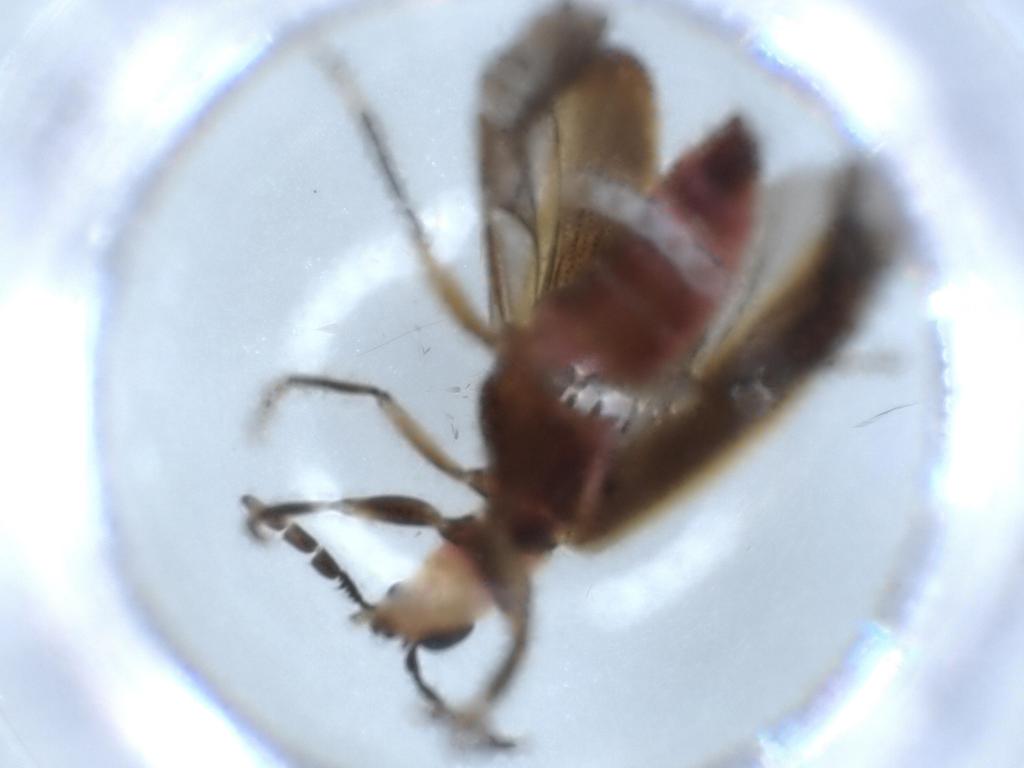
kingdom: Animalia
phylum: Arthropoda
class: Insecta
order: Coleoptera
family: Cleridae
